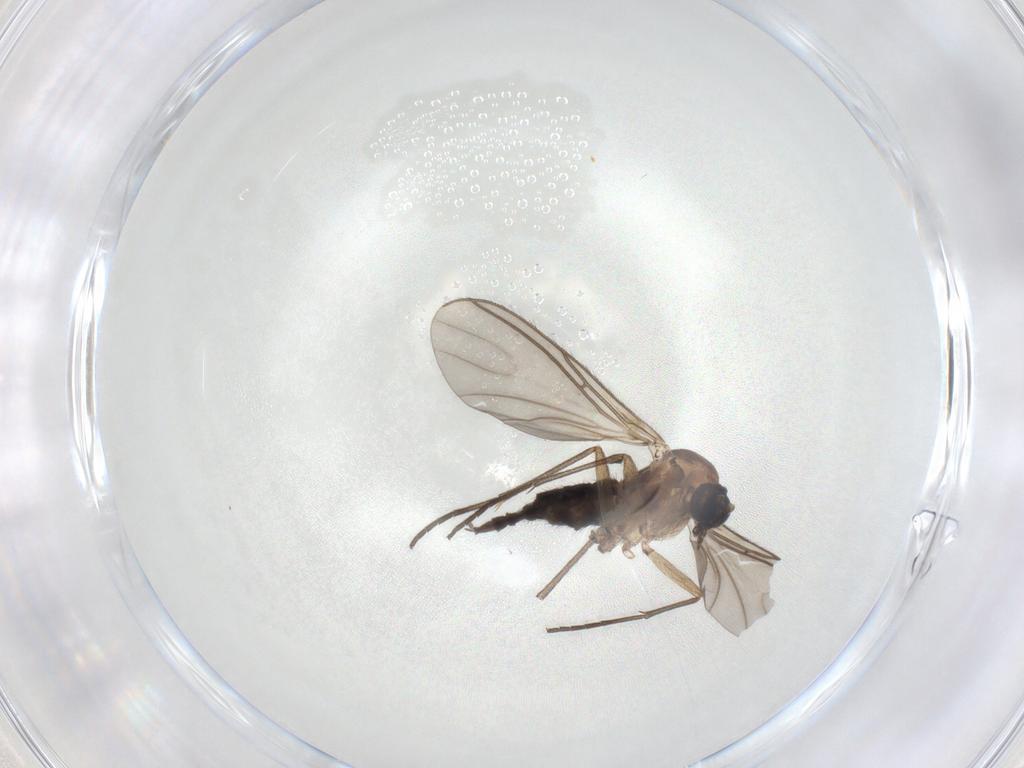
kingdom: Animalia
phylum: Arthropoda
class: Insecta
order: Diptera
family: Sciaridae
